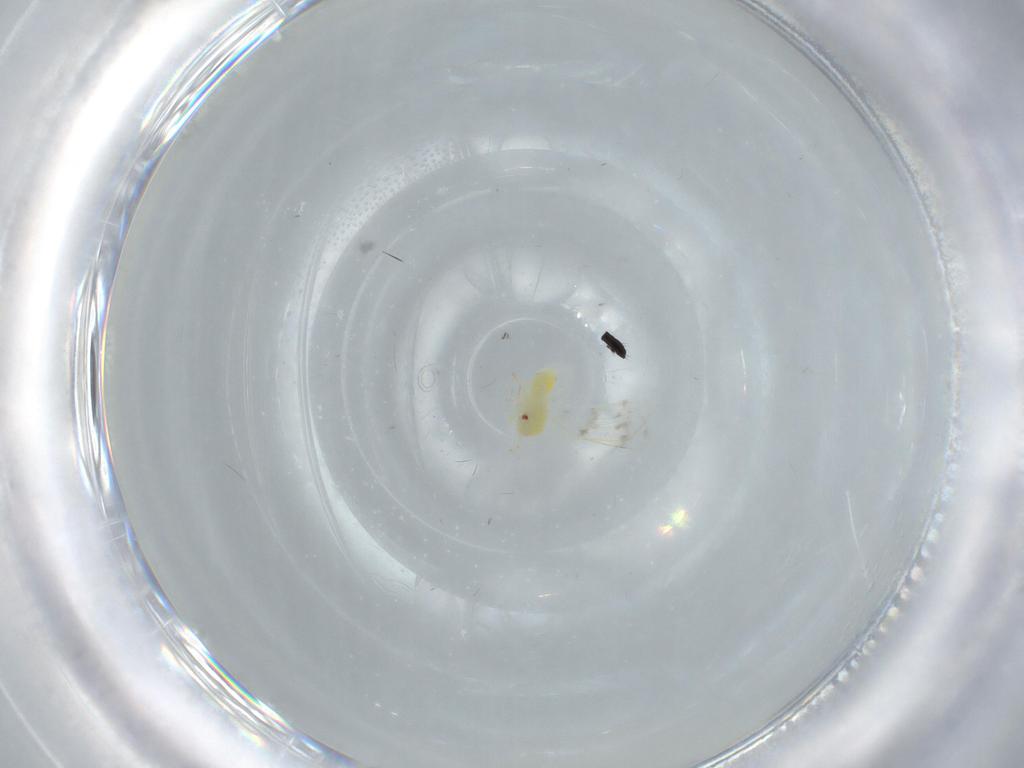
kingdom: Animalia
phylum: Arthropoda
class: Insecta
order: Hemiptera
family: Aleyrodidae
